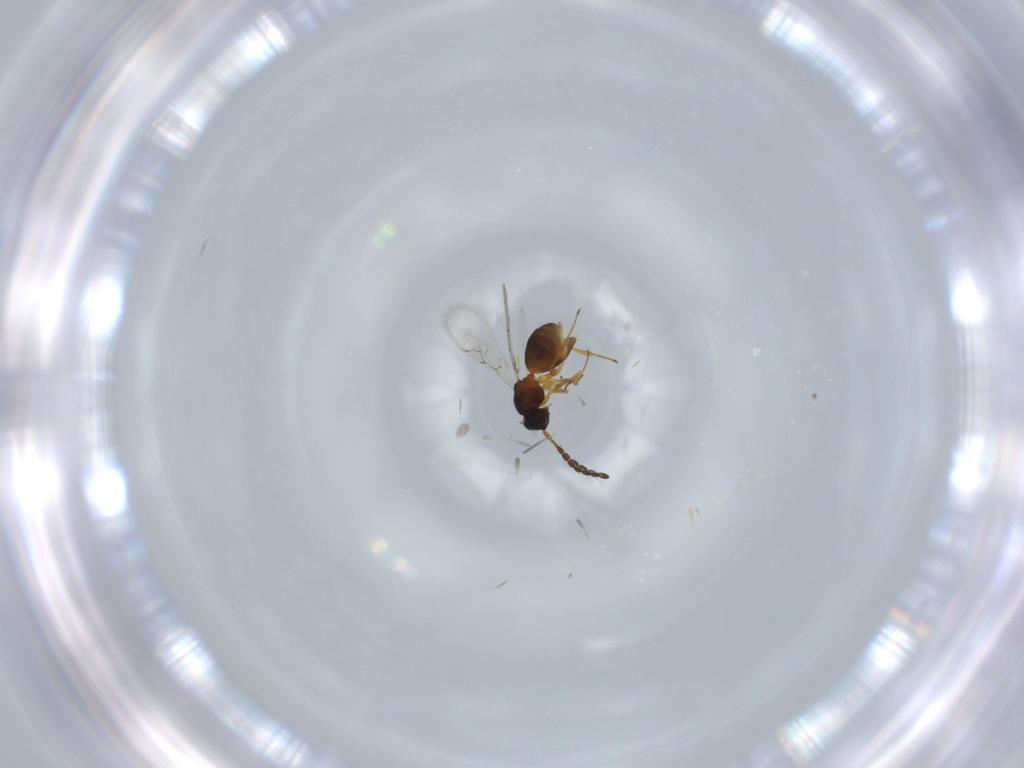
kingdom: Animalia
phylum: Arthropoda
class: Insecta
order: Hymenoptera
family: Figitidae
